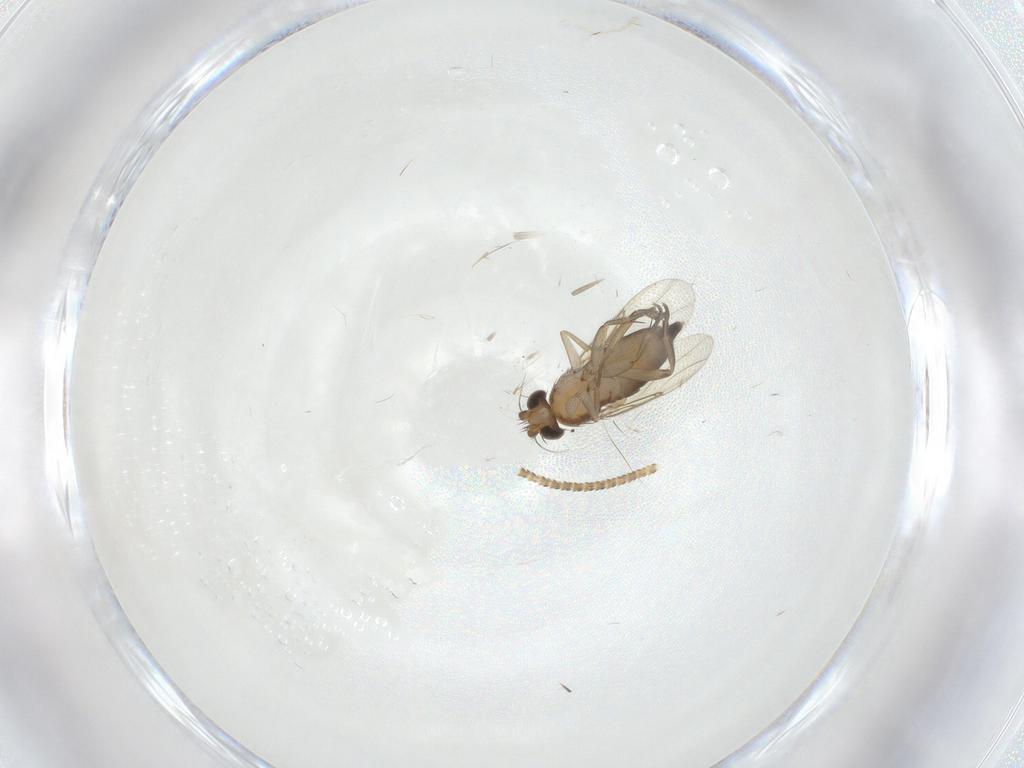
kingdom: Animalia
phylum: Arthropoda
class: Insecta
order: Diptera
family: Phoridae
